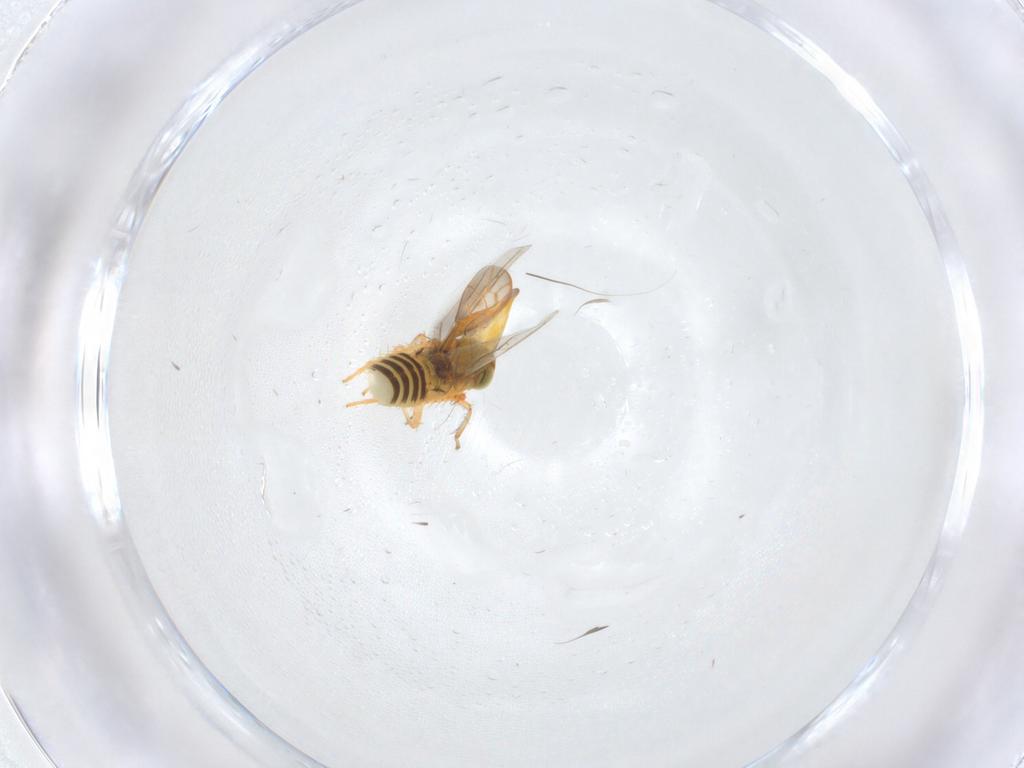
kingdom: Animalia
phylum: Arthropoda
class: Insecta
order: Hemiptera
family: Cicadellidae
